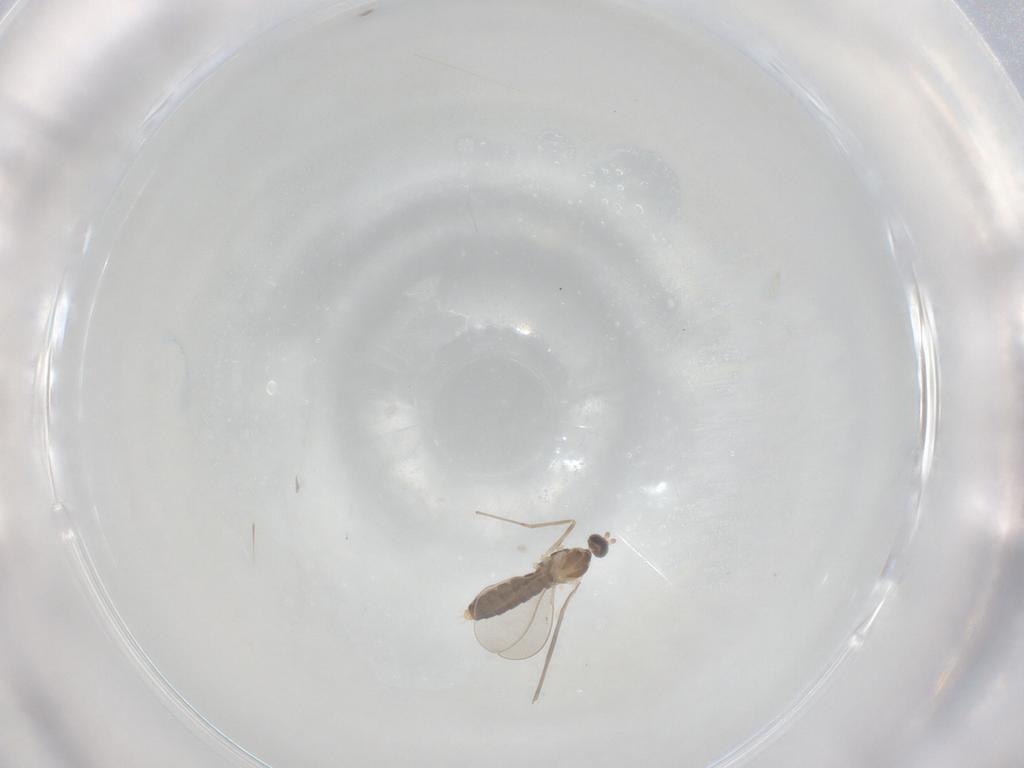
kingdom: Animalia
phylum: Arthropoda
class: Insecta
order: Diptera
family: Cecidomyiidae
